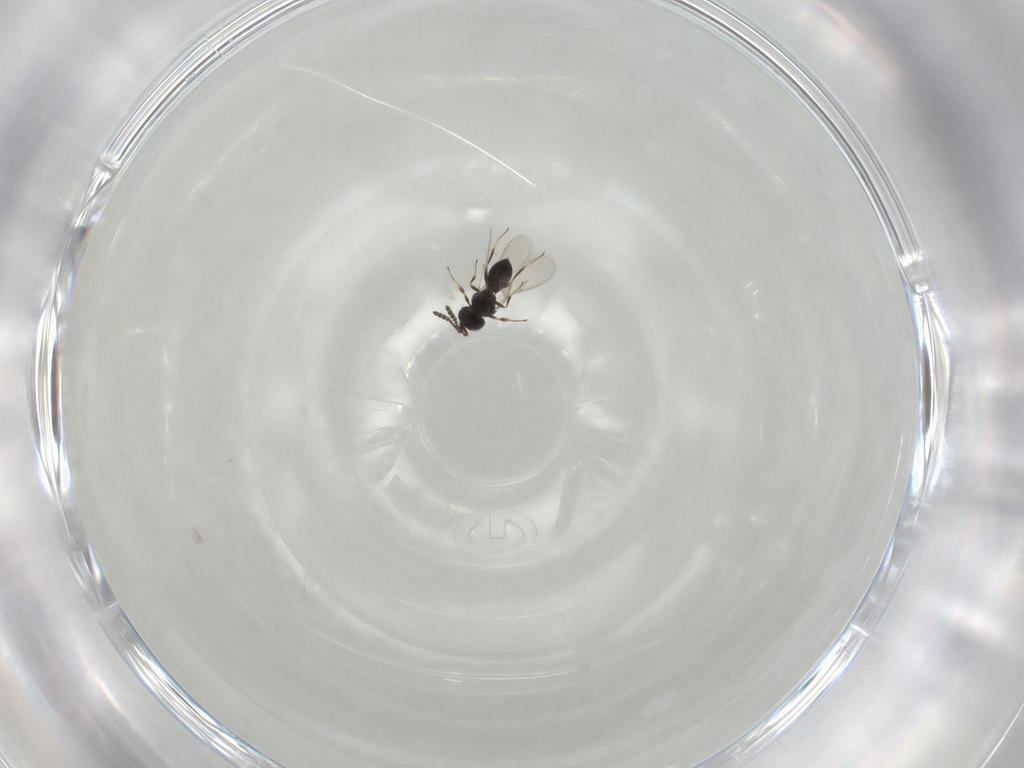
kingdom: Animalia
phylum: Arthropoda
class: Insecta
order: Hymenoptera
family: Scelionidae
